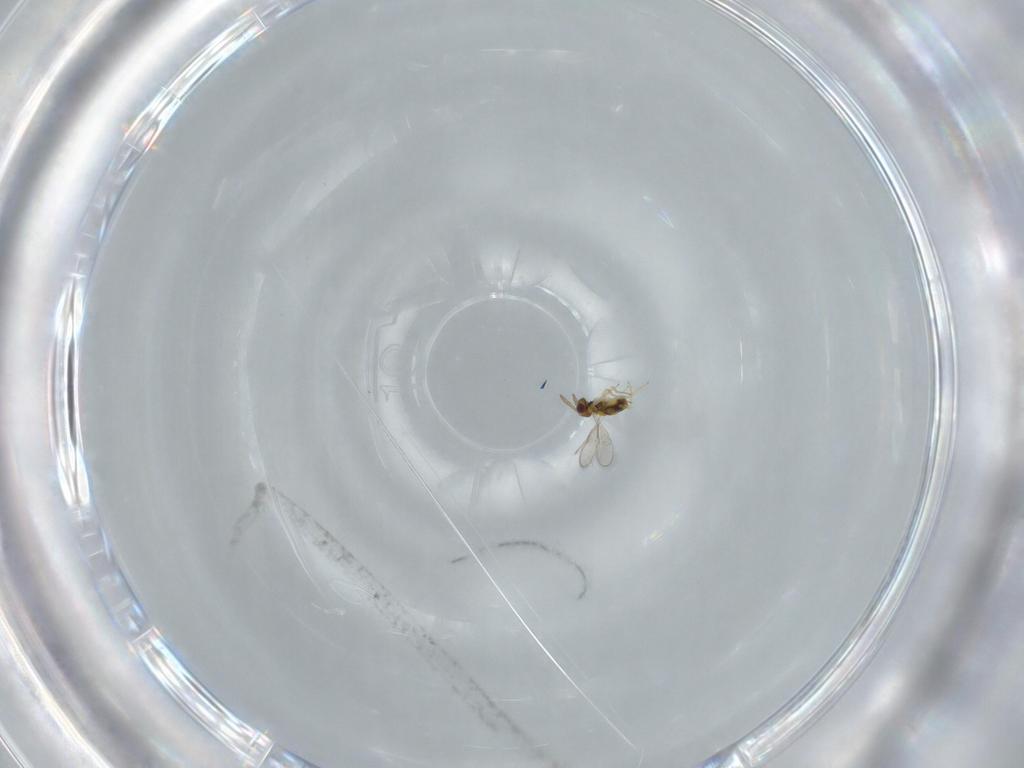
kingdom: Animalia
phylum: Arthropoda
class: Insecta
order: Hymenoptera
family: Aphelinidae
